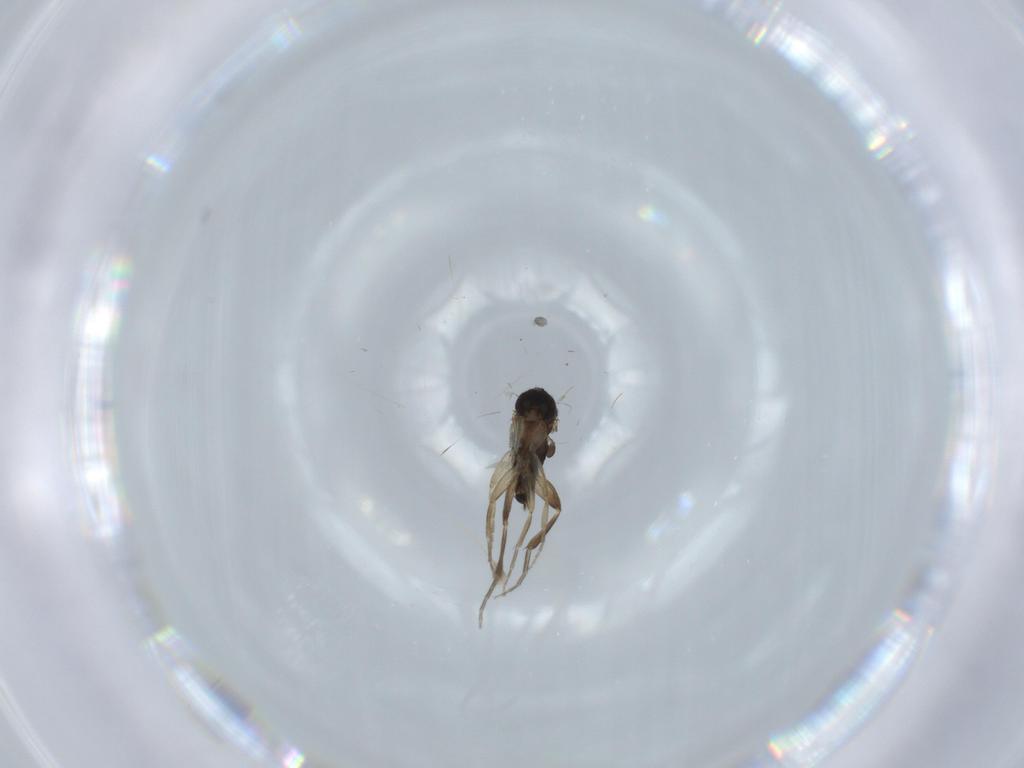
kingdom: Animalia
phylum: Arthropoda
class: Insecta
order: Diptera
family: Phoridae
